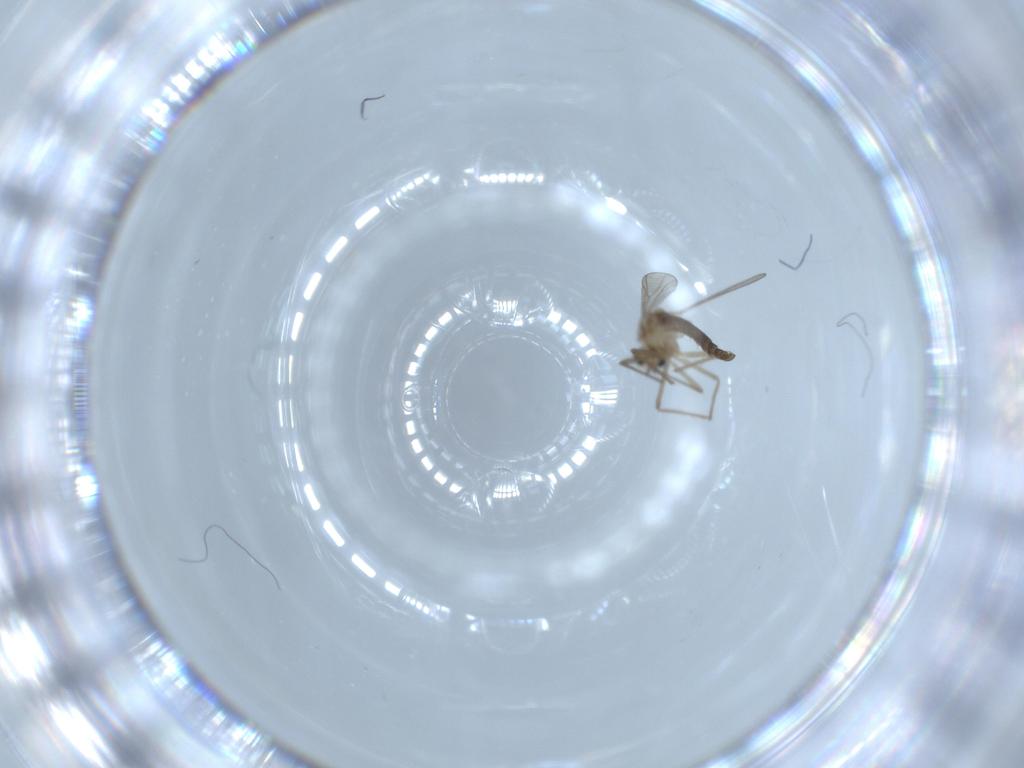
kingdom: Animalia
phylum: Arthropoda
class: Insecta
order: Diptera
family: Chironomidae
